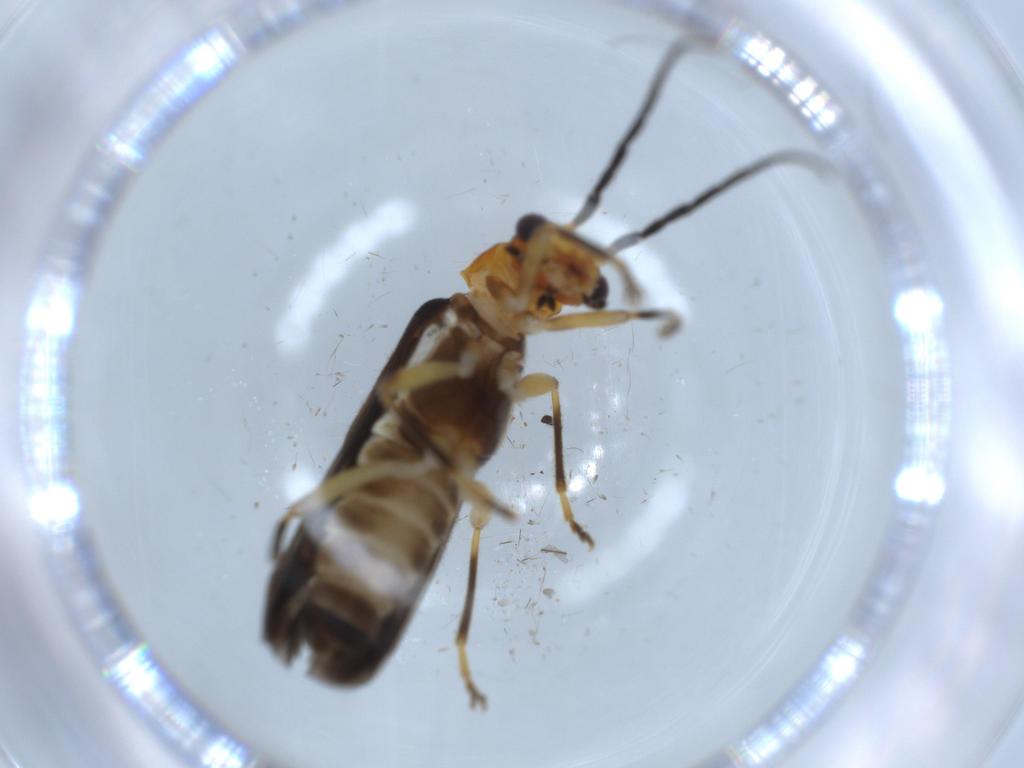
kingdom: Animalia
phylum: Arthropoda
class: Insecta
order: Coleoptera
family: Cantharidae
